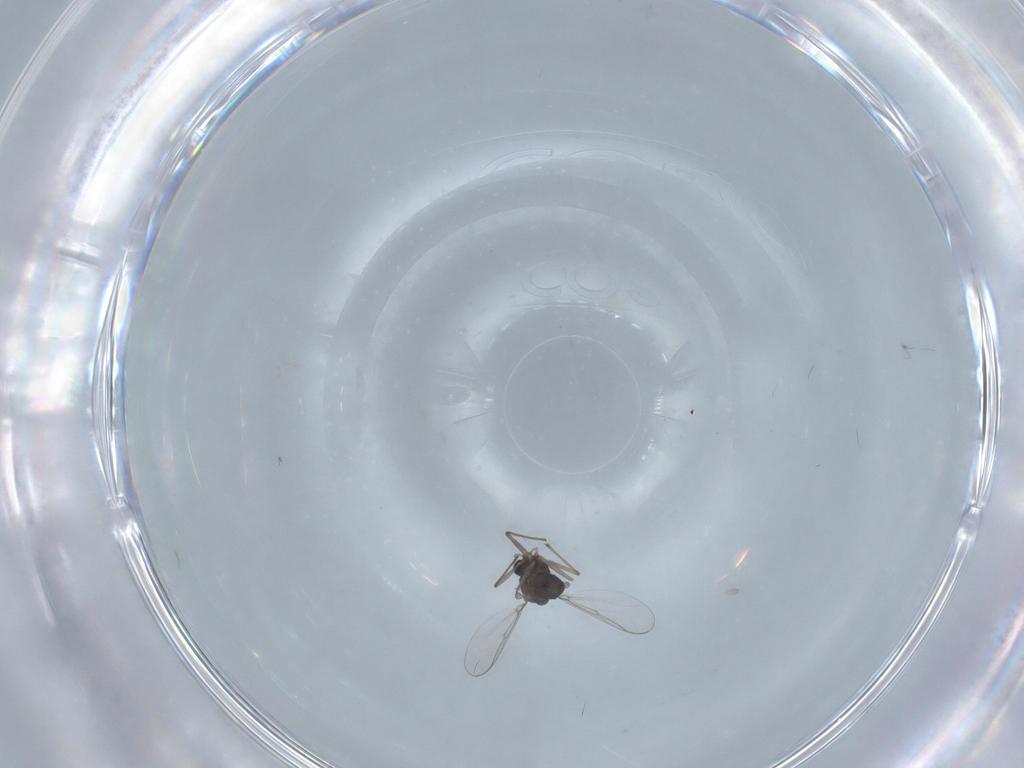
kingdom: Animalia
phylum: Arthropoda
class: Insecta
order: Diptera
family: Chironomidae
